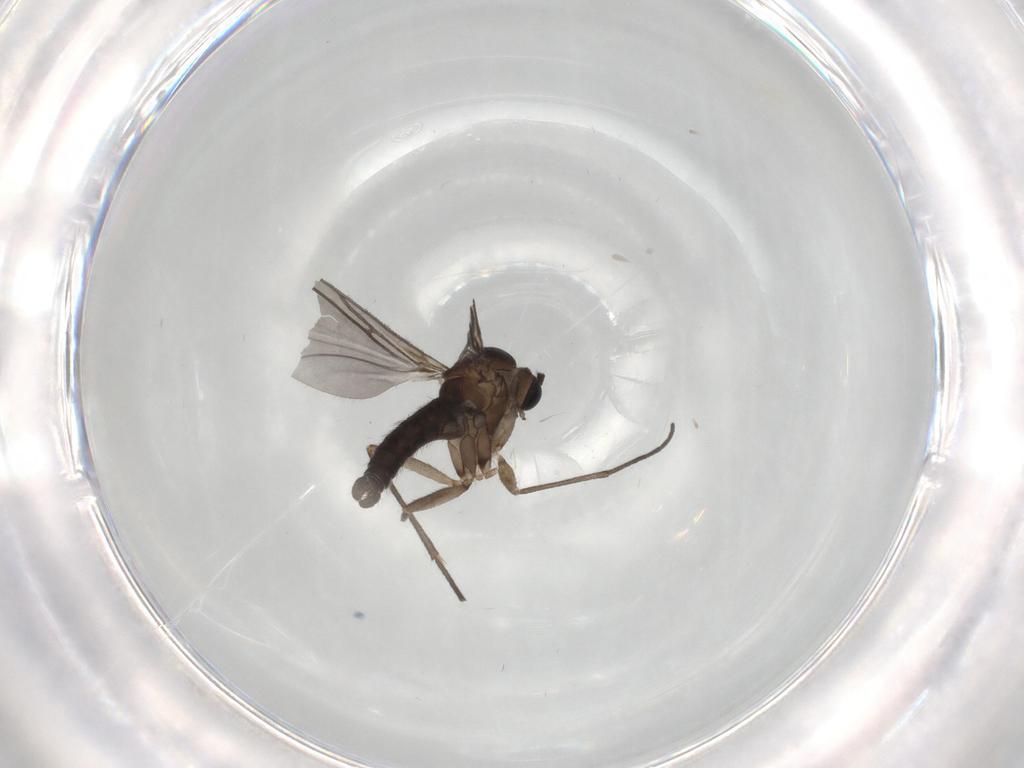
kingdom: Animalia
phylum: Arthropoda
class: Insecta
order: Diptera
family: Sciaridae
